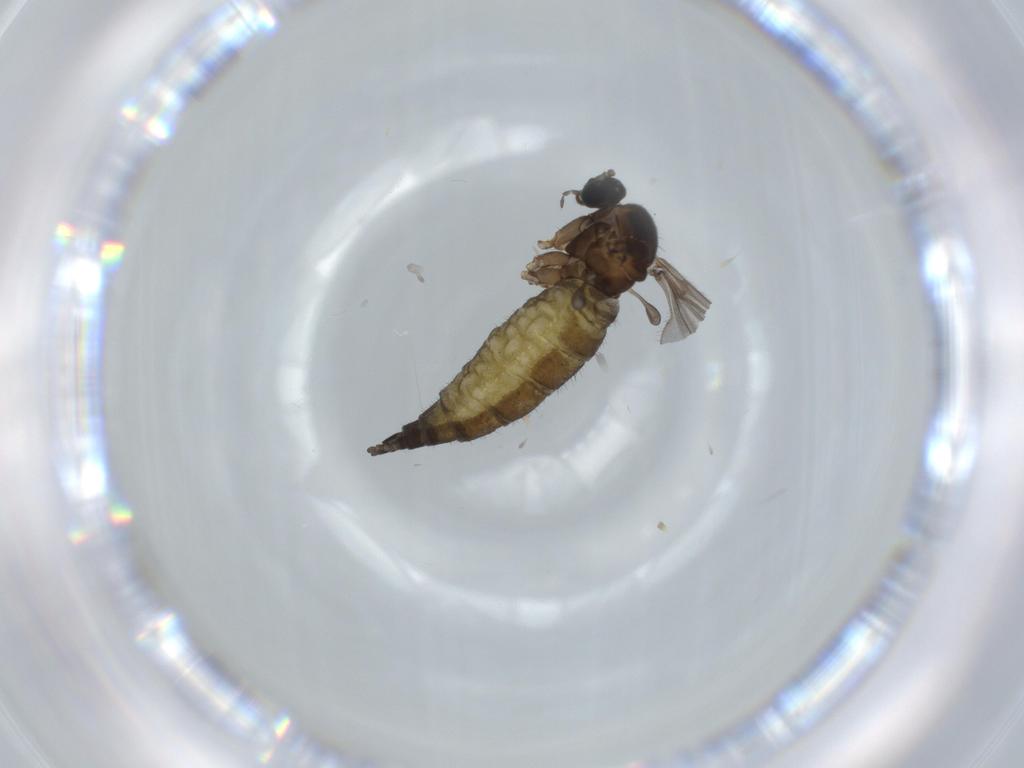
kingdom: Animalia
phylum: Arthropoda
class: Insecta
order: Diptera
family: Sciaridae
